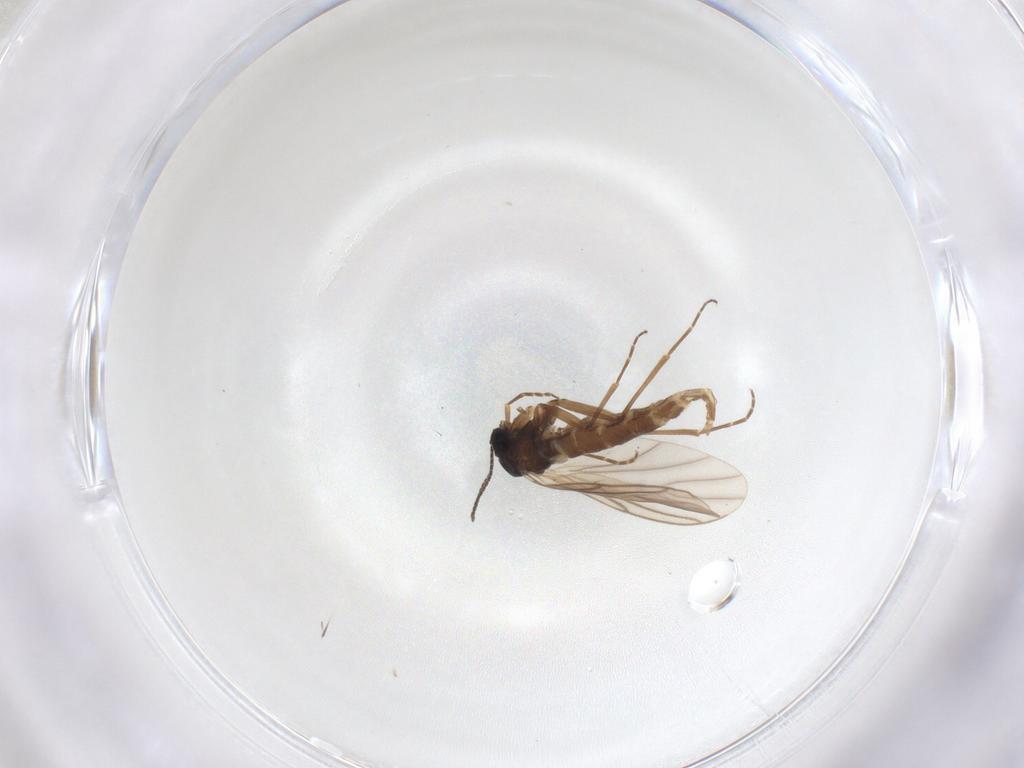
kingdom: Animalia
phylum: Arthropoda
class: Insecta
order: Diptera
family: Sciaridae
